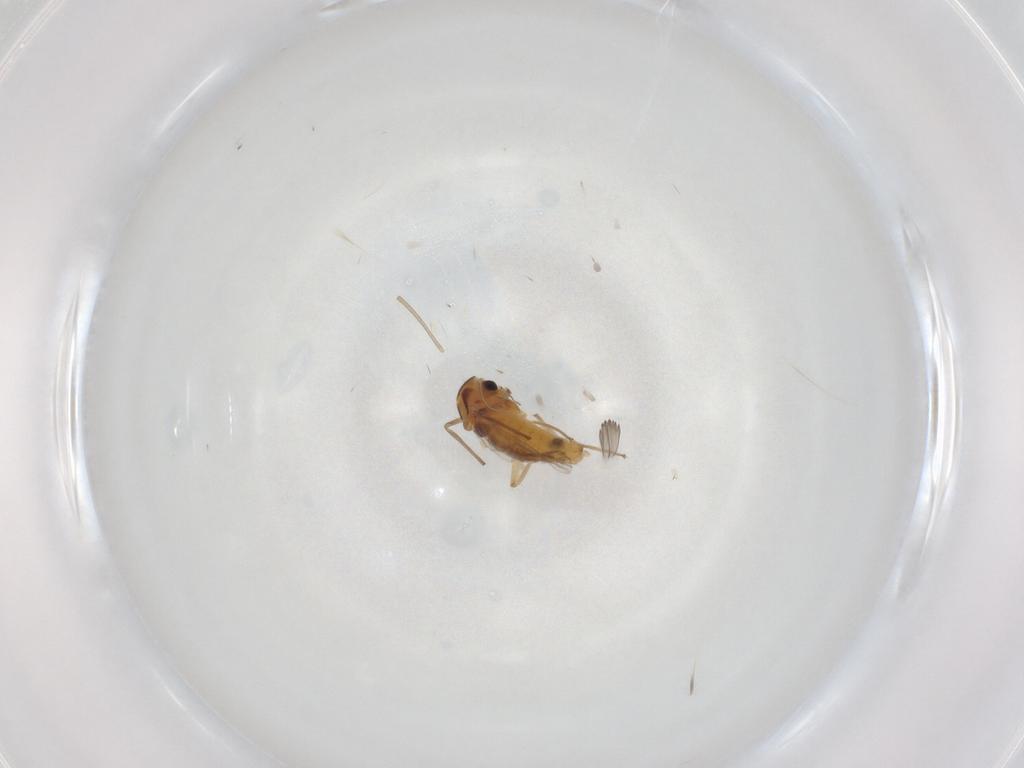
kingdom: Animalia
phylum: Arthropoda
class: Insecta
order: Diptera
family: Chironomidae
